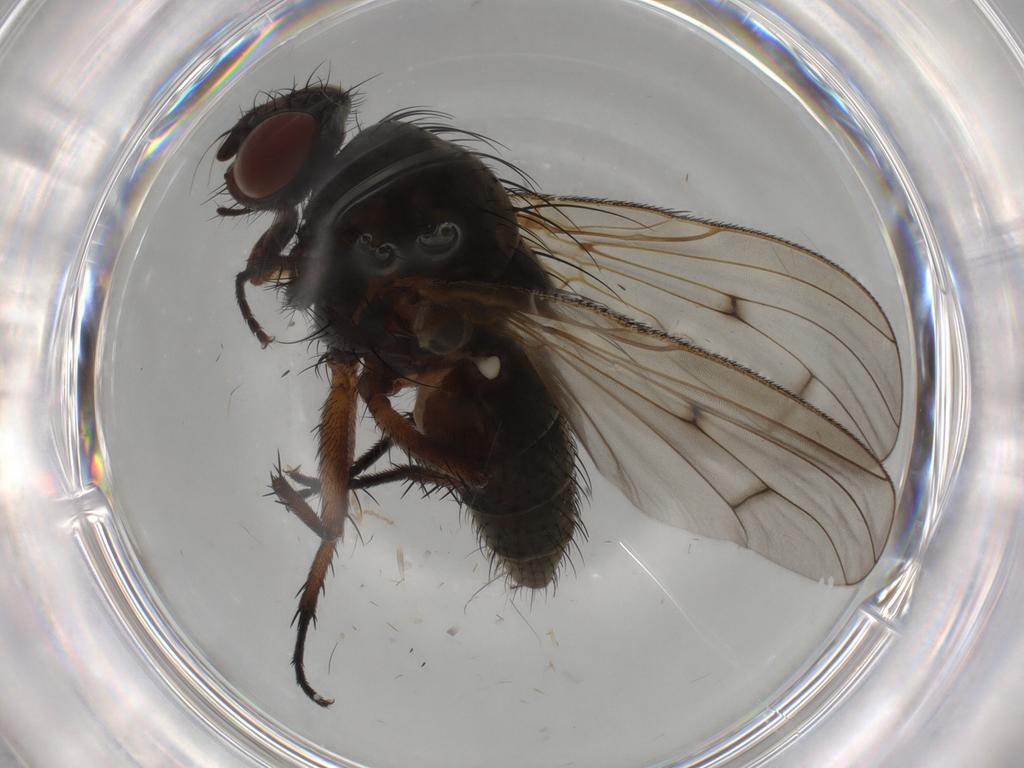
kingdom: Animalia
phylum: Arthropoda
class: Insecta
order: Diptera
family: Anthomyiidae
